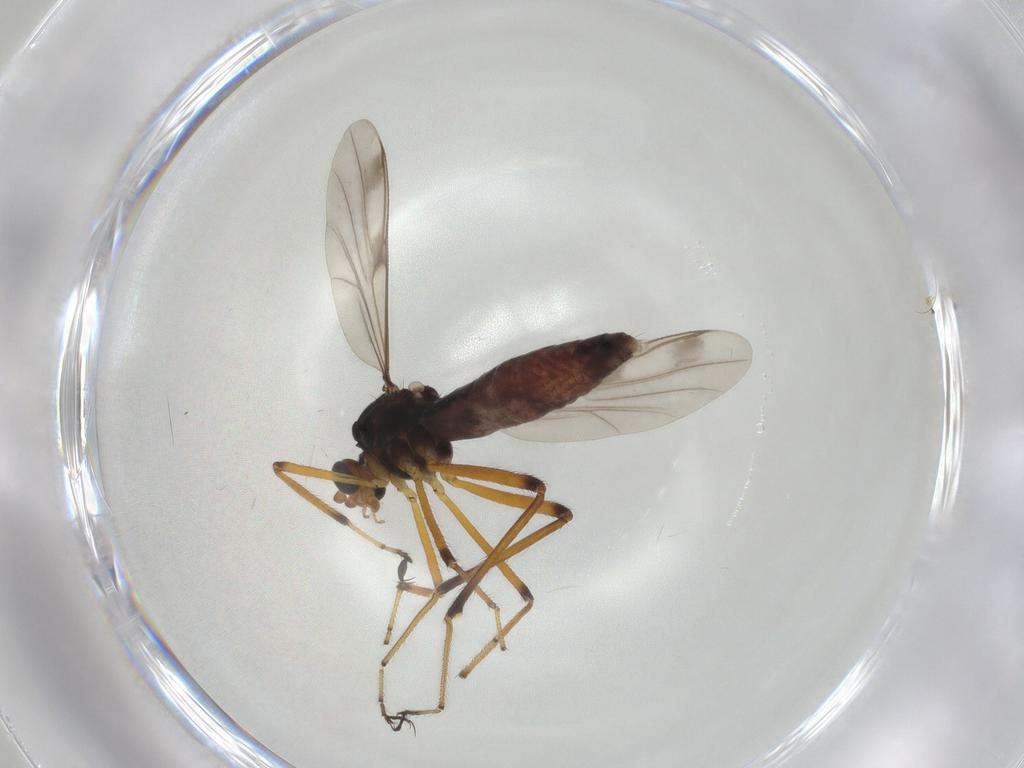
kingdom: Animalia
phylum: Arthropoda
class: Insecta
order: Diptera
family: Limoniidae
